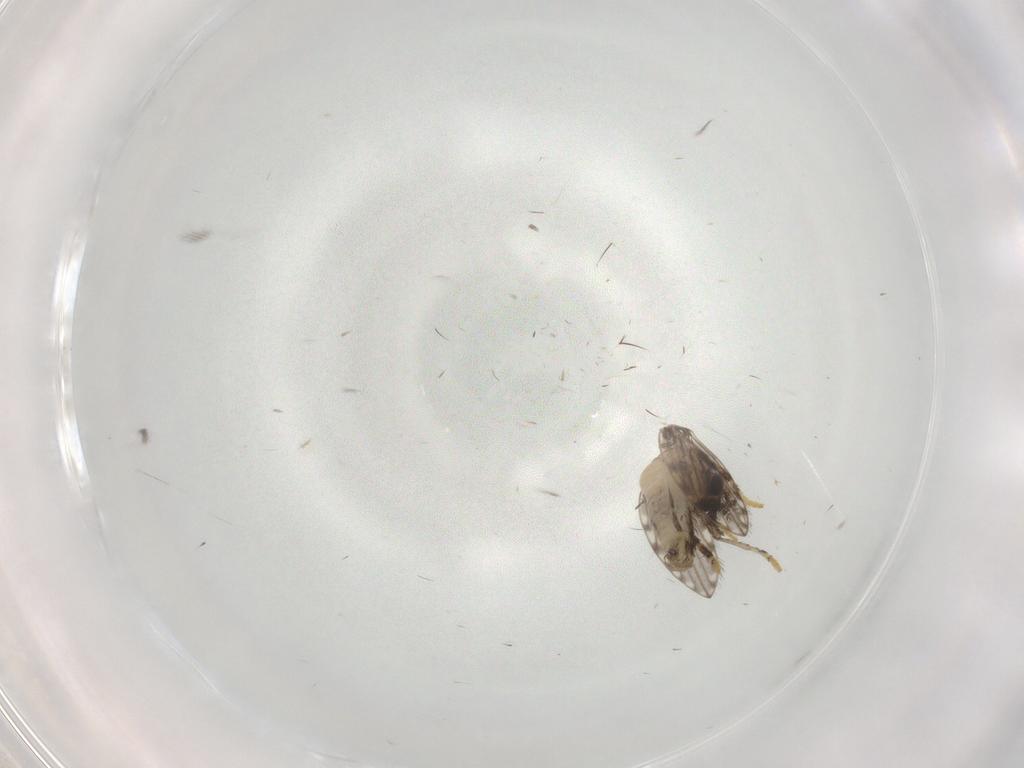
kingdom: Animalia
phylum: Arthropoda
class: Insecta
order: Diptera
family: Psychodidae
